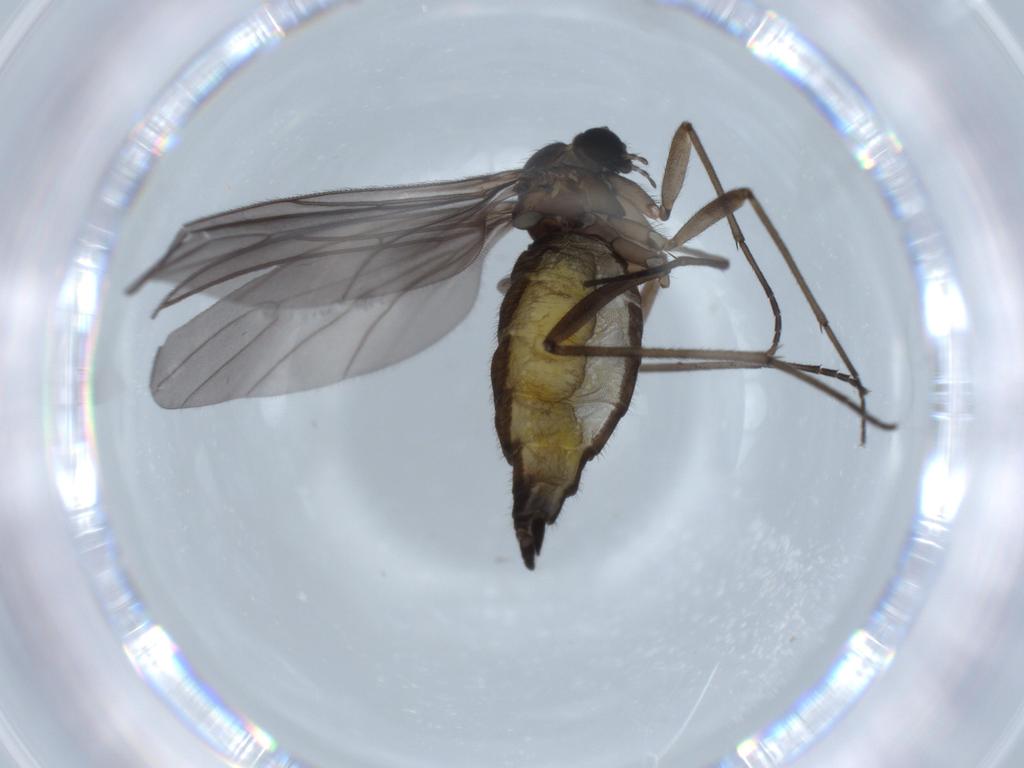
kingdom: Animalia
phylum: Arthropoda
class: Insecta
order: Diptera
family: Sciaridae
